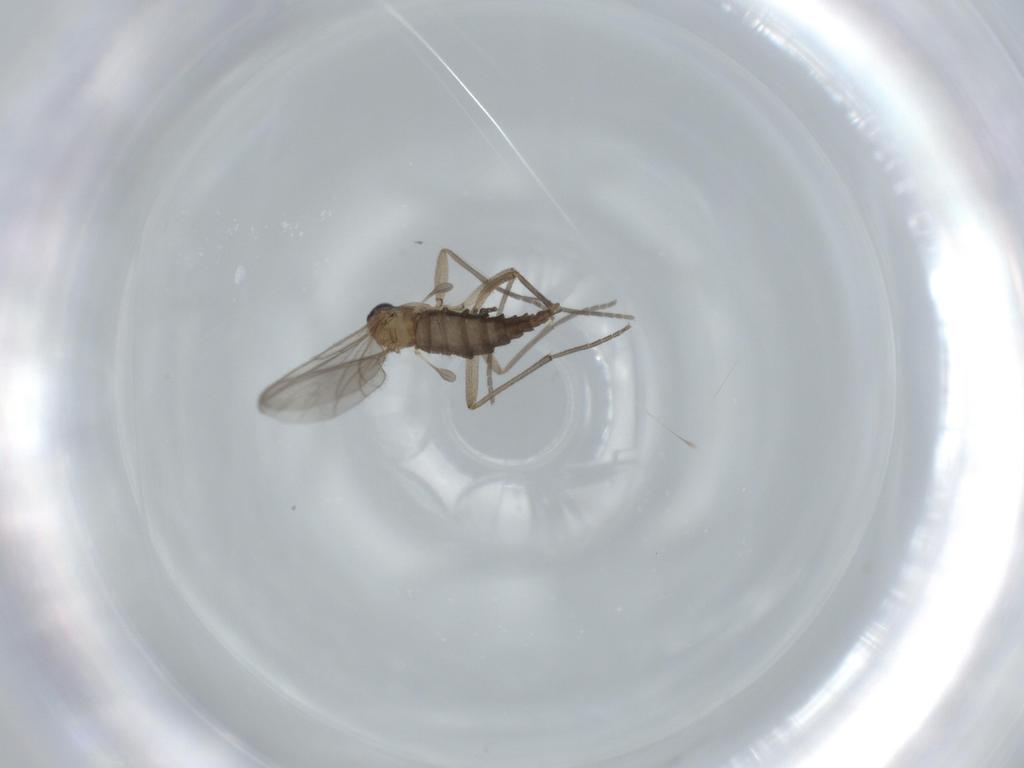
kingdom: Animalia
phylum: Arthropoda
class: Insecta
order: Diptera
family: Sciaridae
